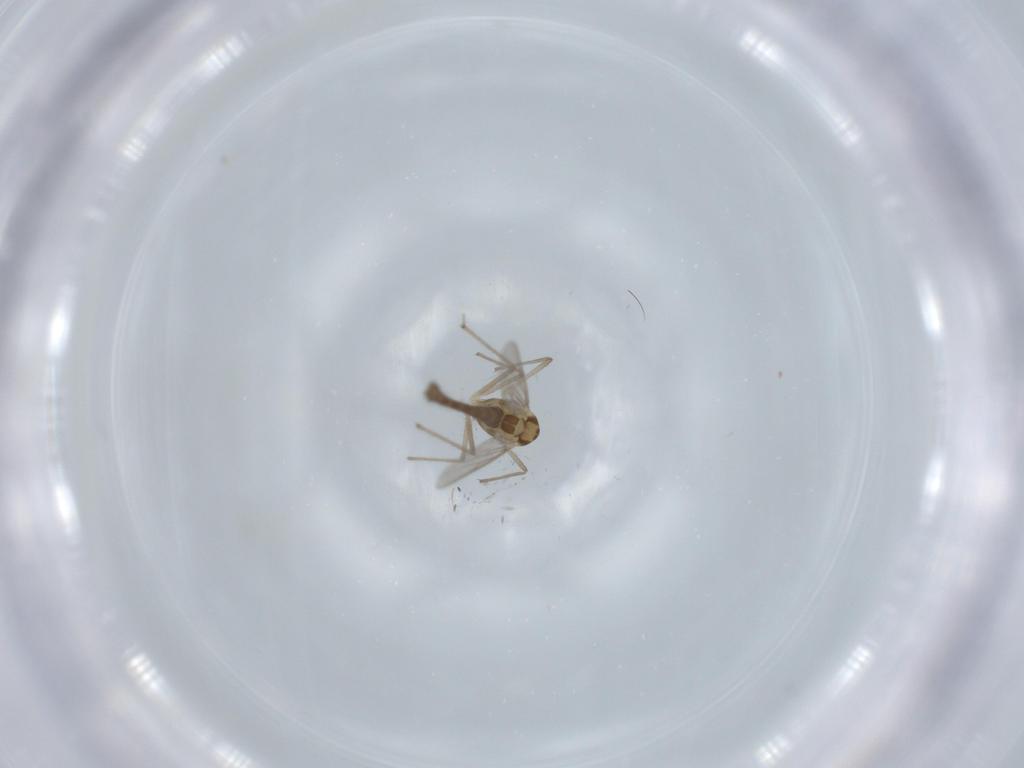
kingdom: Animalia
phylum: Arthropoda
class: Insecta
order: Diptera
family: Chironomidae
